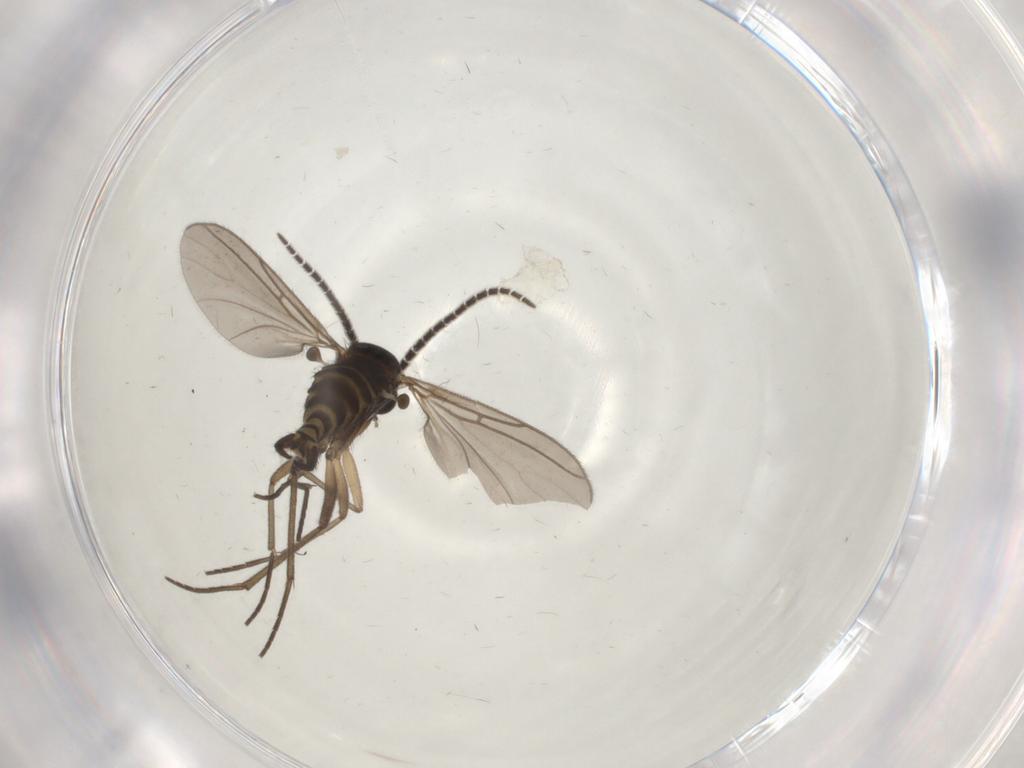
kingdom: Animalia
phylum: Arthropoda
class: Insecta
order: Diptera
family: Sciaridae
